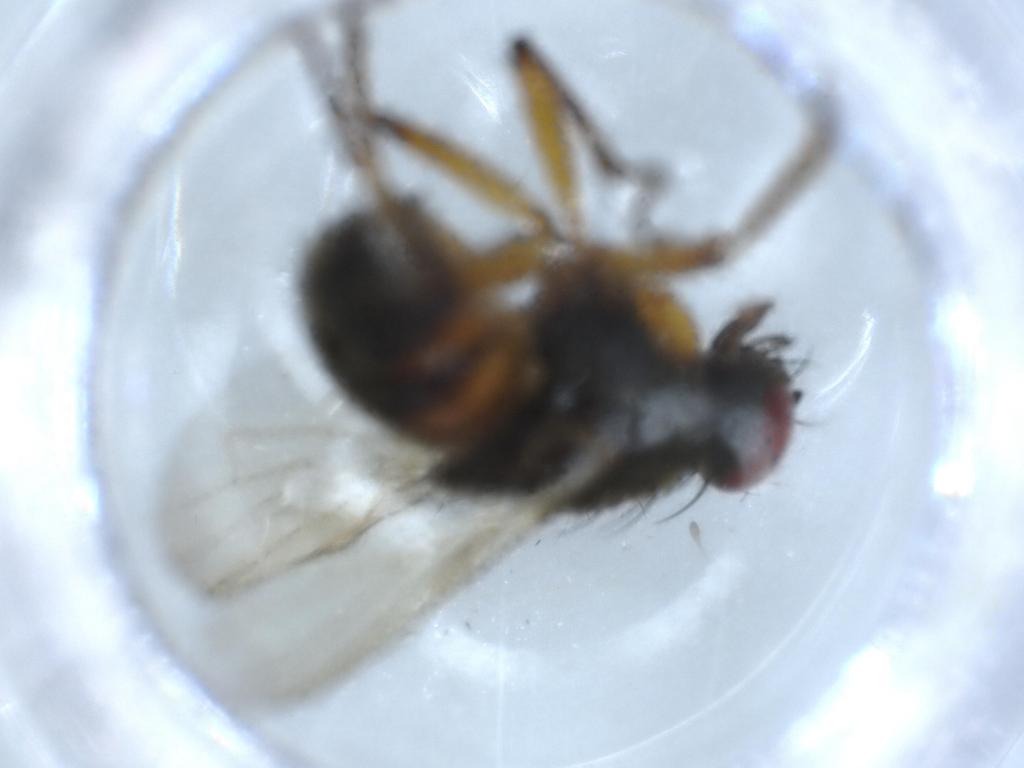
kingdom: Animalia
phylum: Arthropoda
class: Insecta
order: Diptera
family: Muscidae
